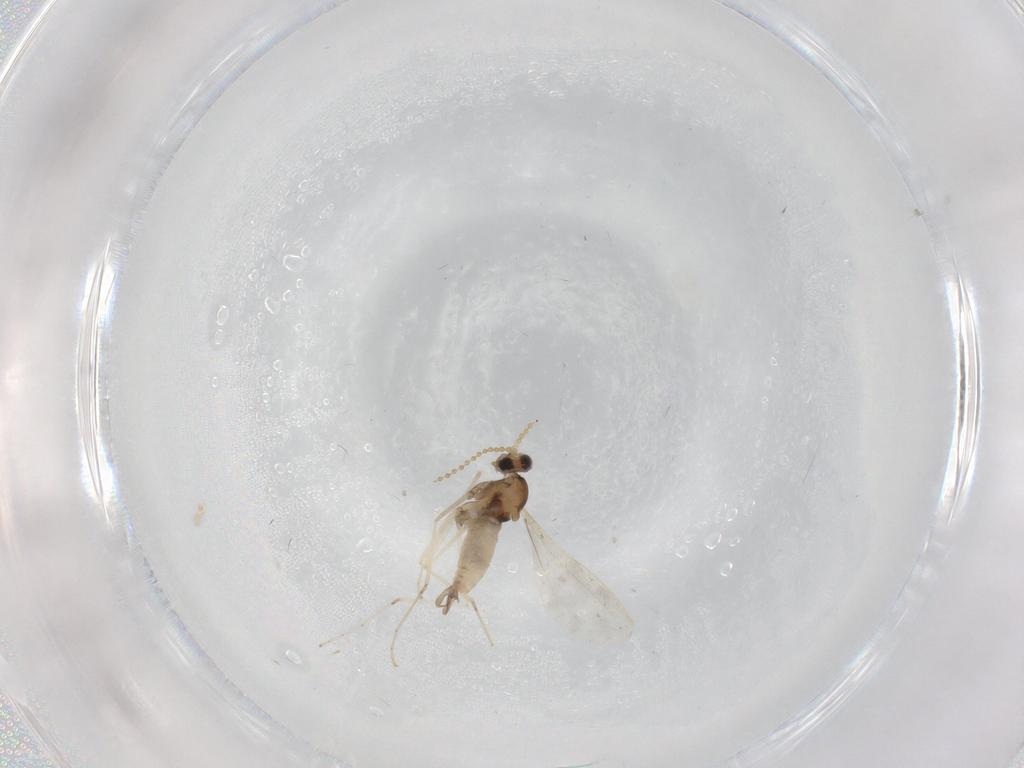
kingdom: Animalia
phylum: Arthropoda
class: Insecta
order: Diptera
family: Cecidomyiidae
